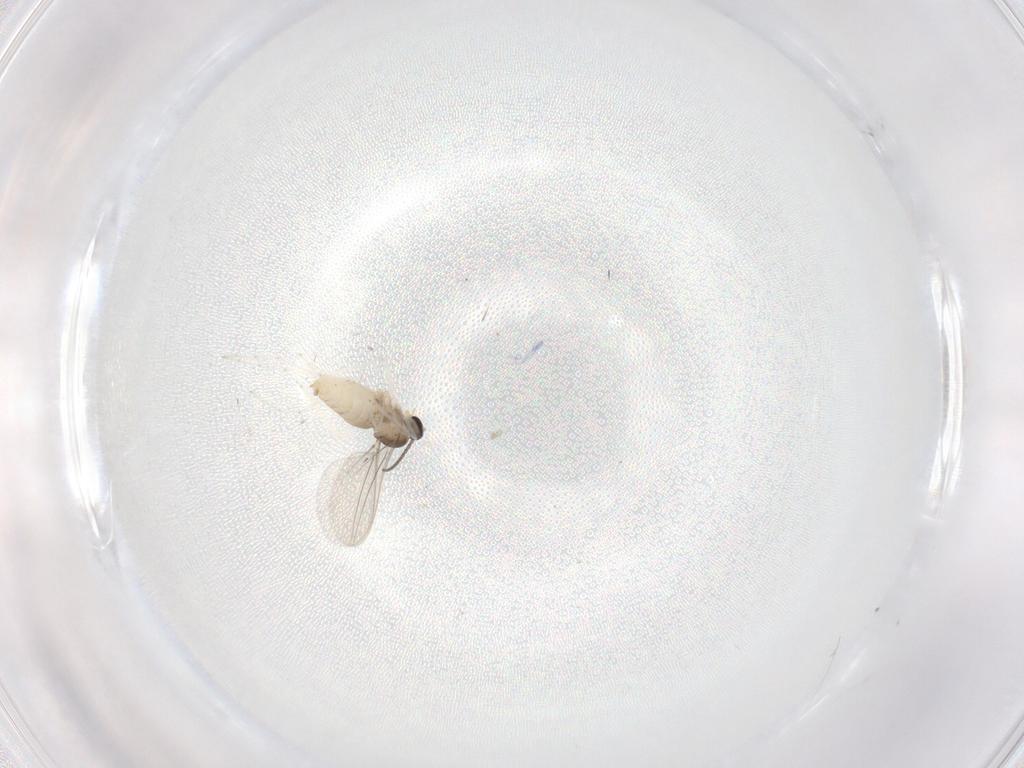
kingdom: Animalia
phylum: Arthropoda
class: Insecta
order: Diptera
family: Cecidomyiidae
